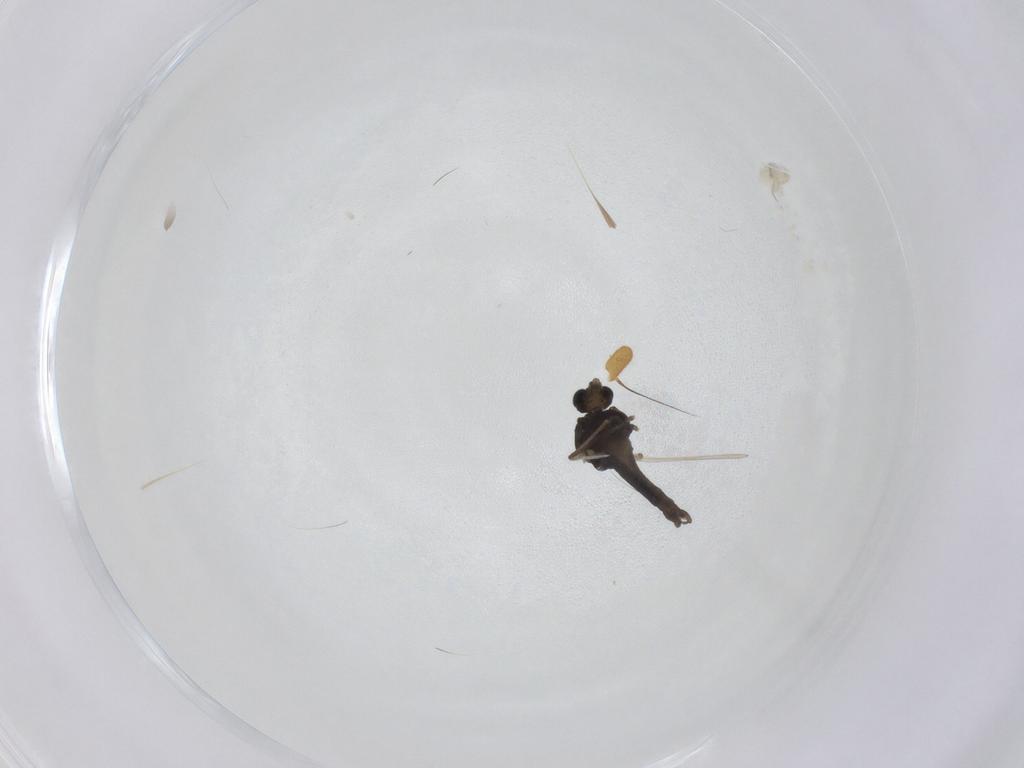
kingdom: Animalia
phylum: Arthropoda
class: Insecta
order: Diptera
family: Chironomidae
